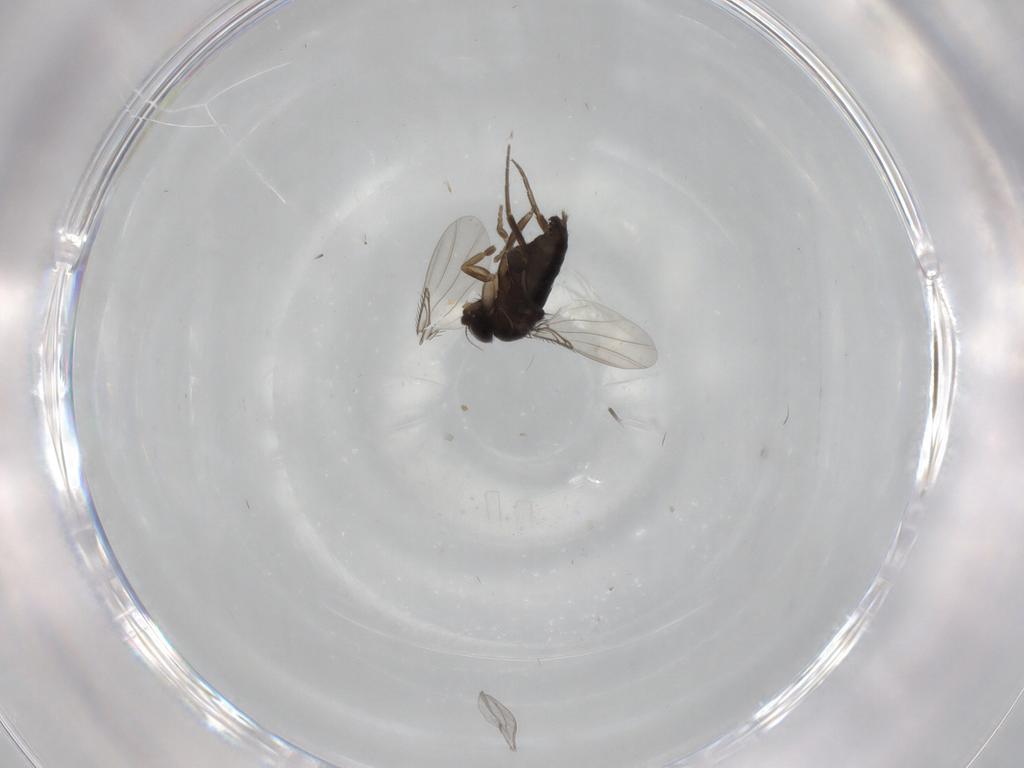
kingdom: Animalia
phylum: Arthropoda
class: Insecta
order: Diptera
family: Phoridae
